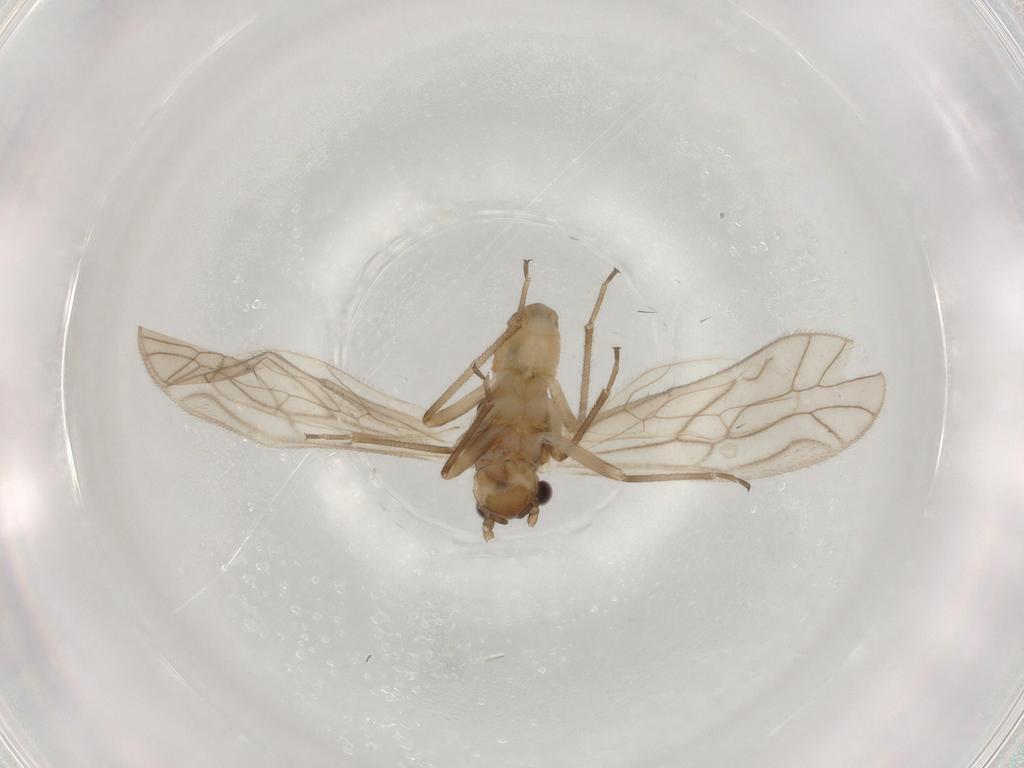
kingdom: Animalia
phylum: Arthropoda
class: Insecta
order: Psocodea
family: Caeciliusidae
